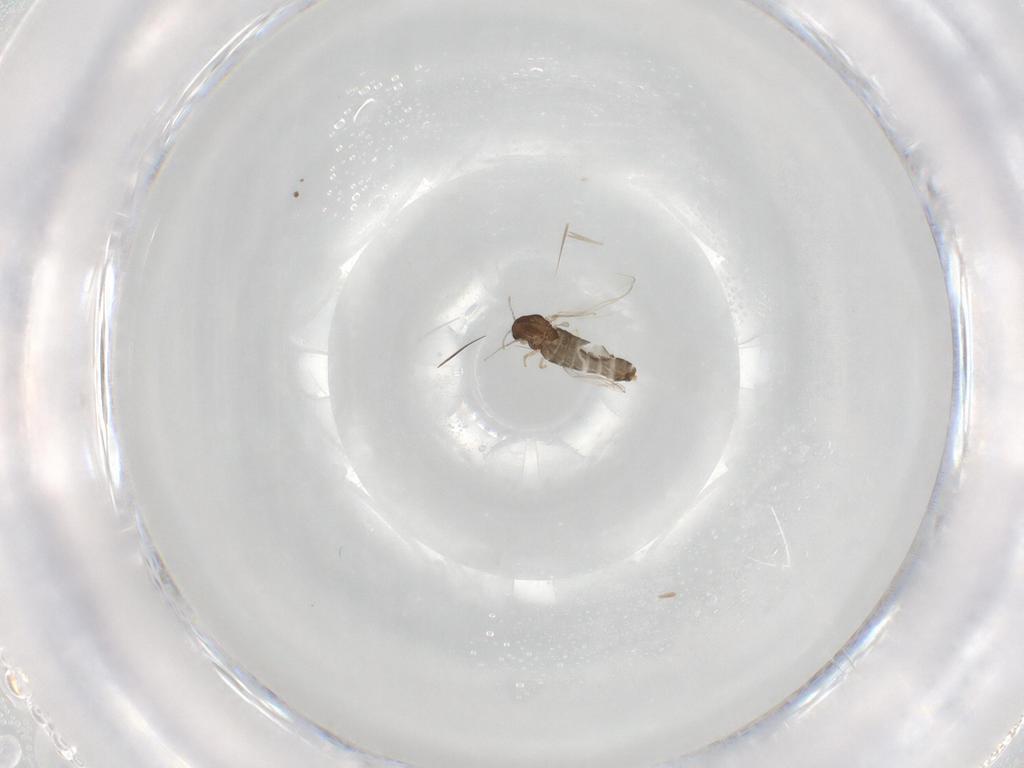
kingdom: Animalia
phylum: Arthropoda
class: Insecta
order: Diptera
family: Chironomidae
